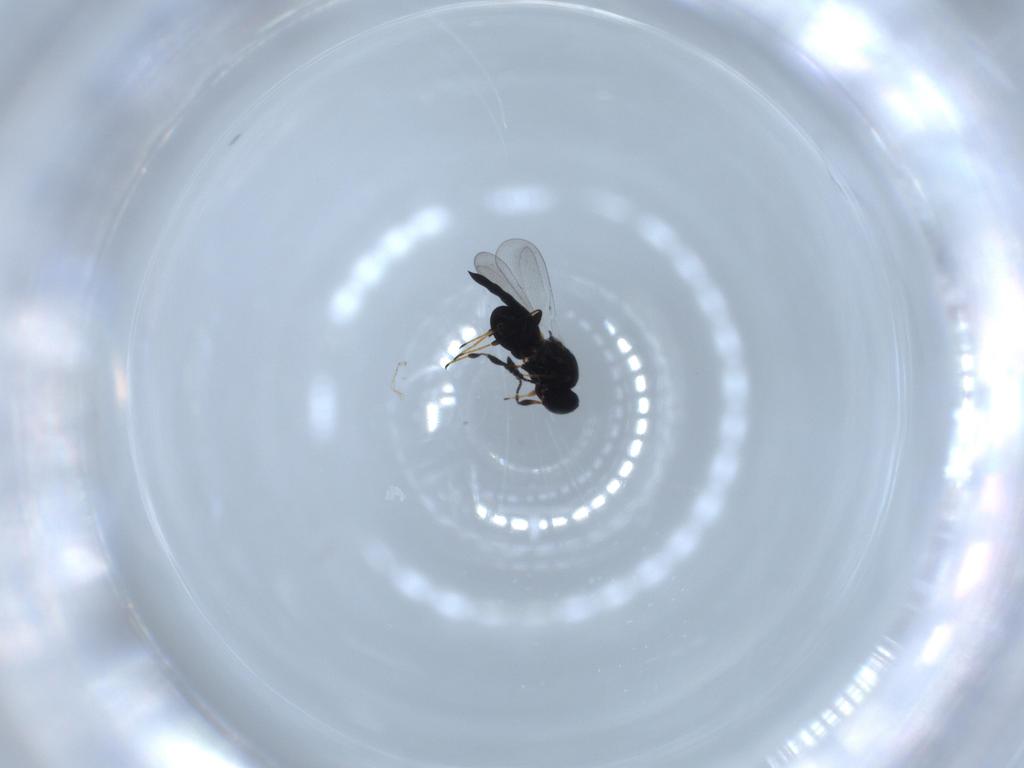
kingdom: Animalia
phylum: Arthropoda
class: Insecta
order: Hymenoptera
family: Platygastridae
